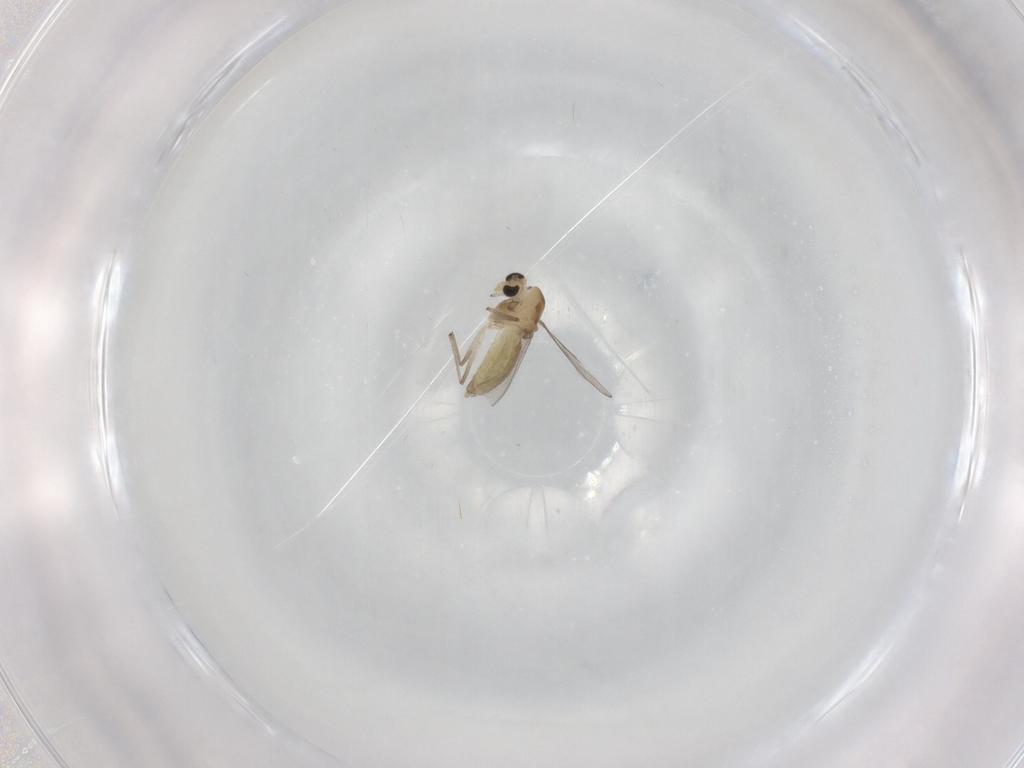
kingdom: Animalia
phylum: Arthropoda
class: Insecta
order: Diptera
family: Chironomidae
